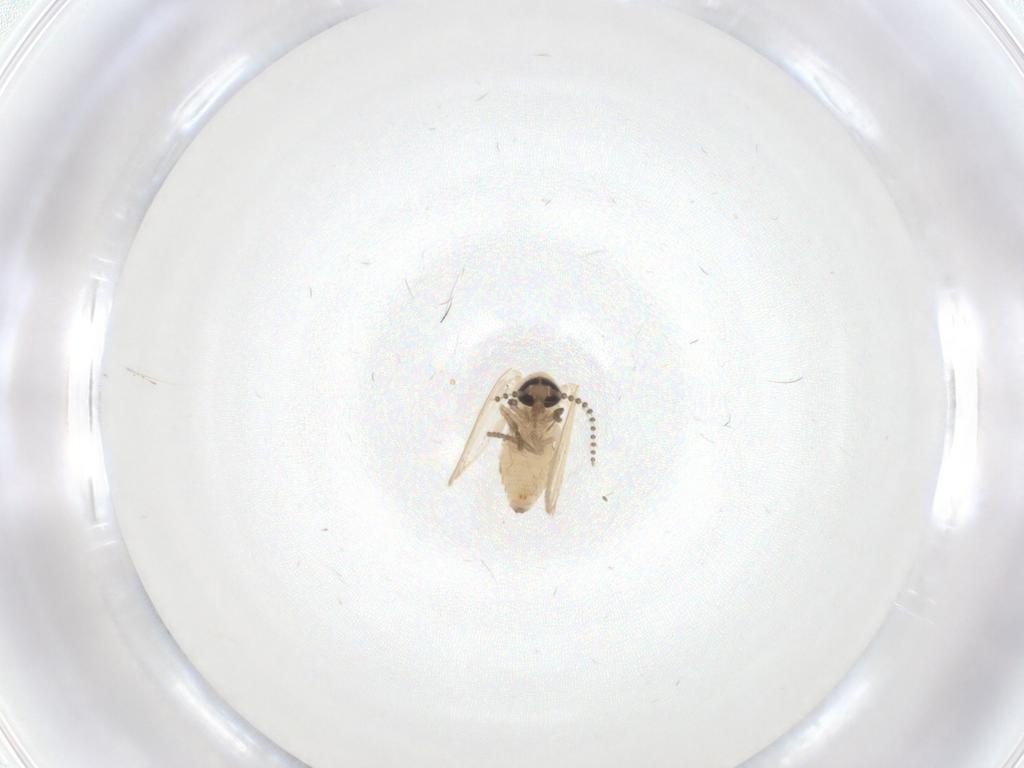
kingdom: Animalia
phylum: Arthropoda
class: Insecta
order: Diptera
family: Psychodidae
